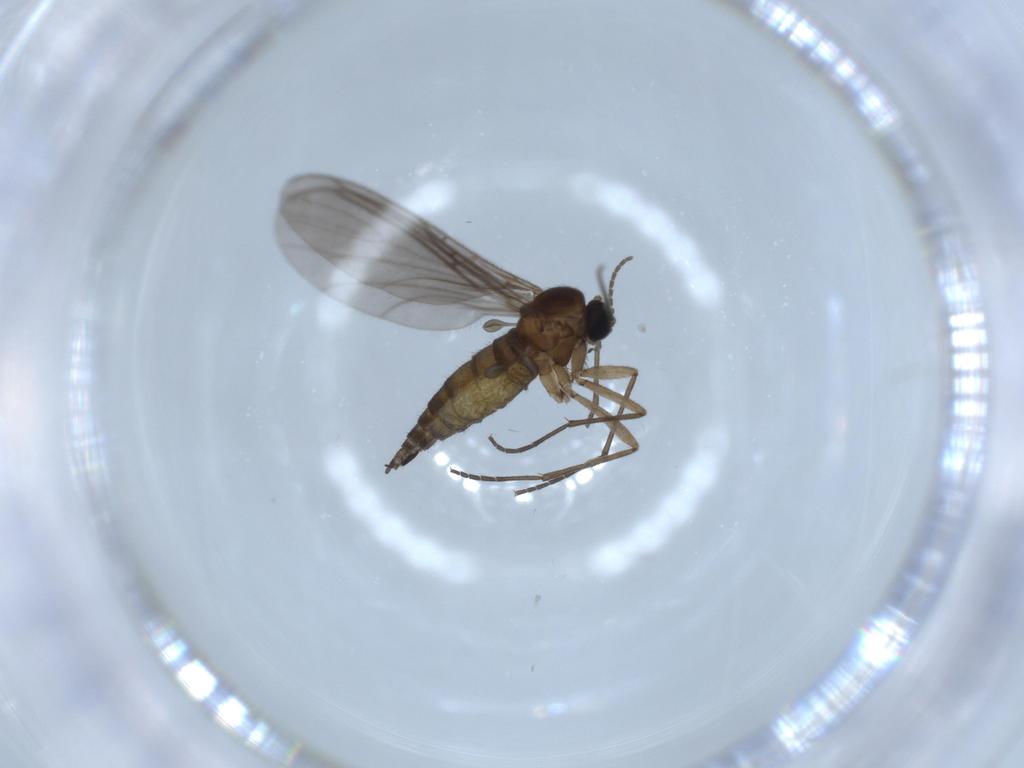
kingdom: Animalia
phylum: Arthropoda
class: Insecta
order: Diptera
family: Sciaridae
